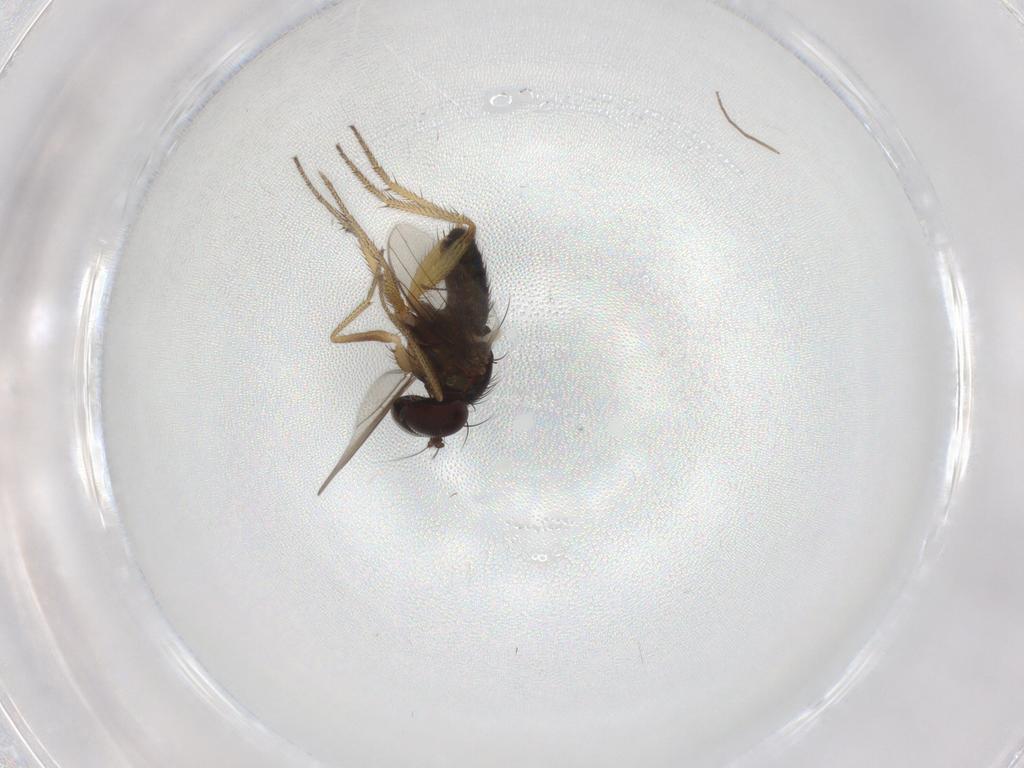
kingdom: Animalia
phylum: Arthropoda
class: Insecta
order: Diptera
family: Chironomidae
